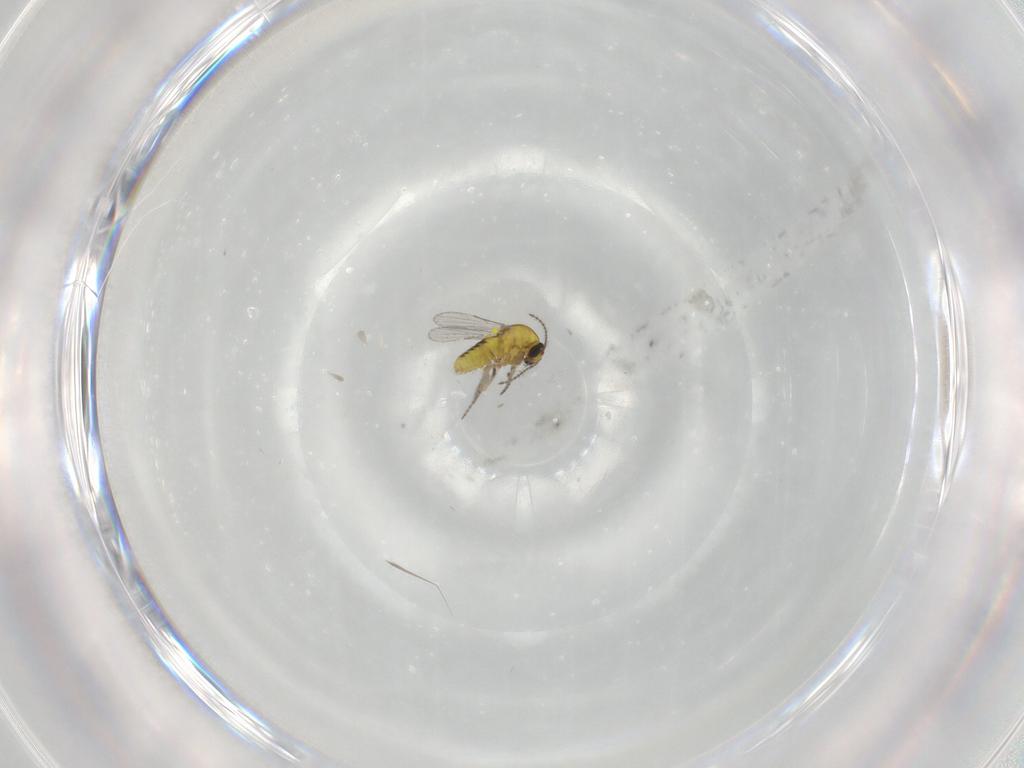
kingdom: Animalia
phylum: Arthropoda
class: Insecta
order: Diptera
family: Ceratopogonidae
